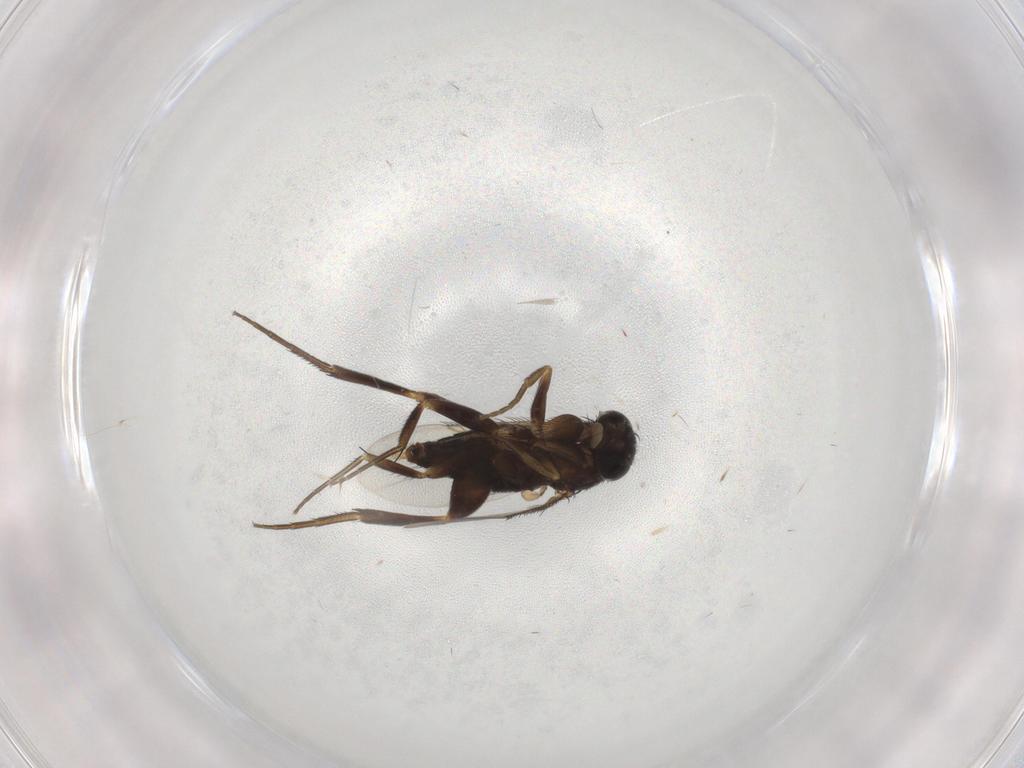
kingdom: Animalia
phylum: Arthropoda
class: Insecta
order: Diptera
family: Phoridae
